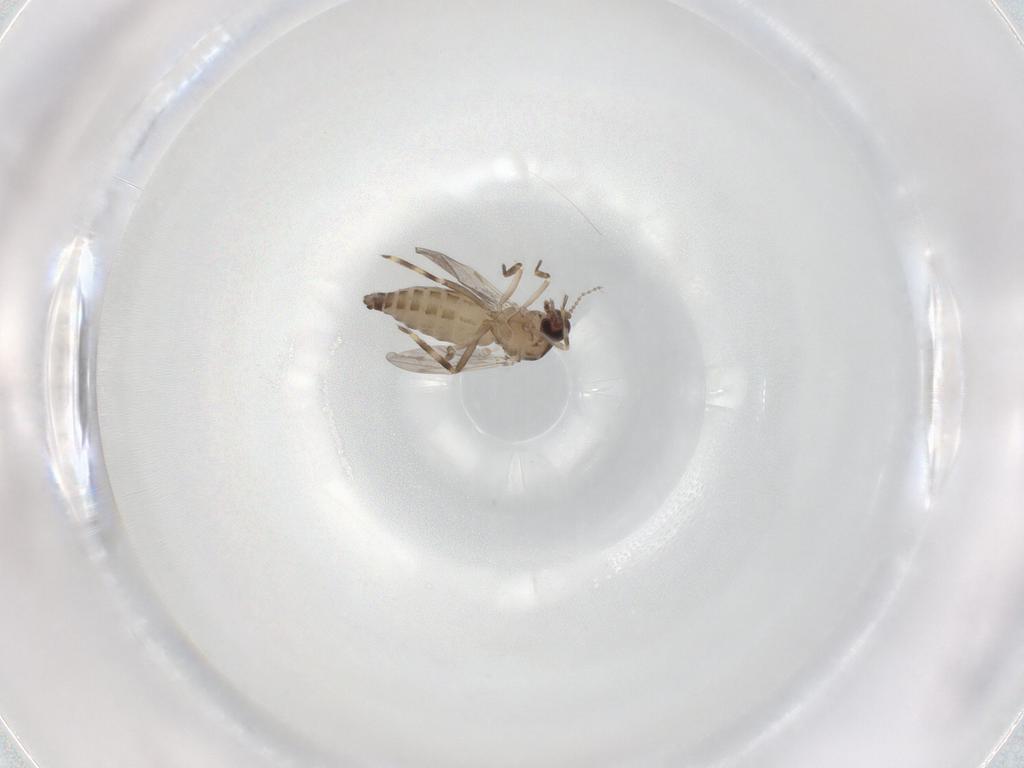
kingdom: Animalia
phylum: Arthropoda
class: Insecta
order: Diptera
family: Ceratopogonidae
